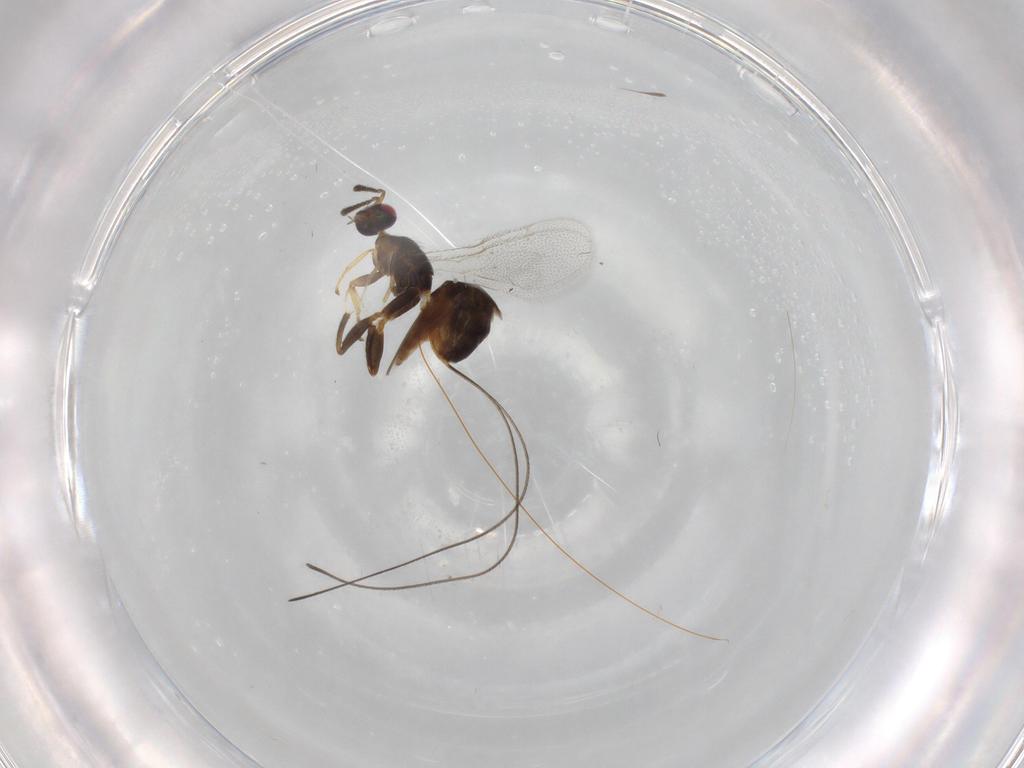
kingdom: Animalia
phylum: Arthropoda
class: Insecta
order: Hymenoptera
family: Torymidae
